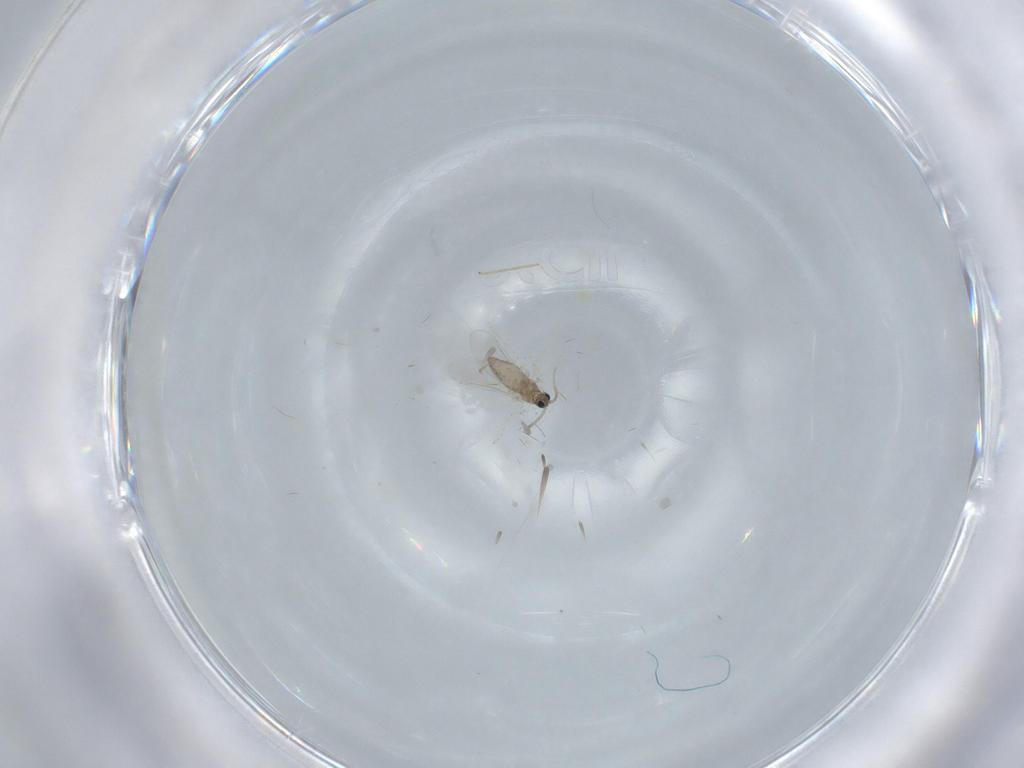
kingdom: Animalia
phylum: Arthropoda
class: Insecta
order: Diptera
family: Cecidomyiidae
